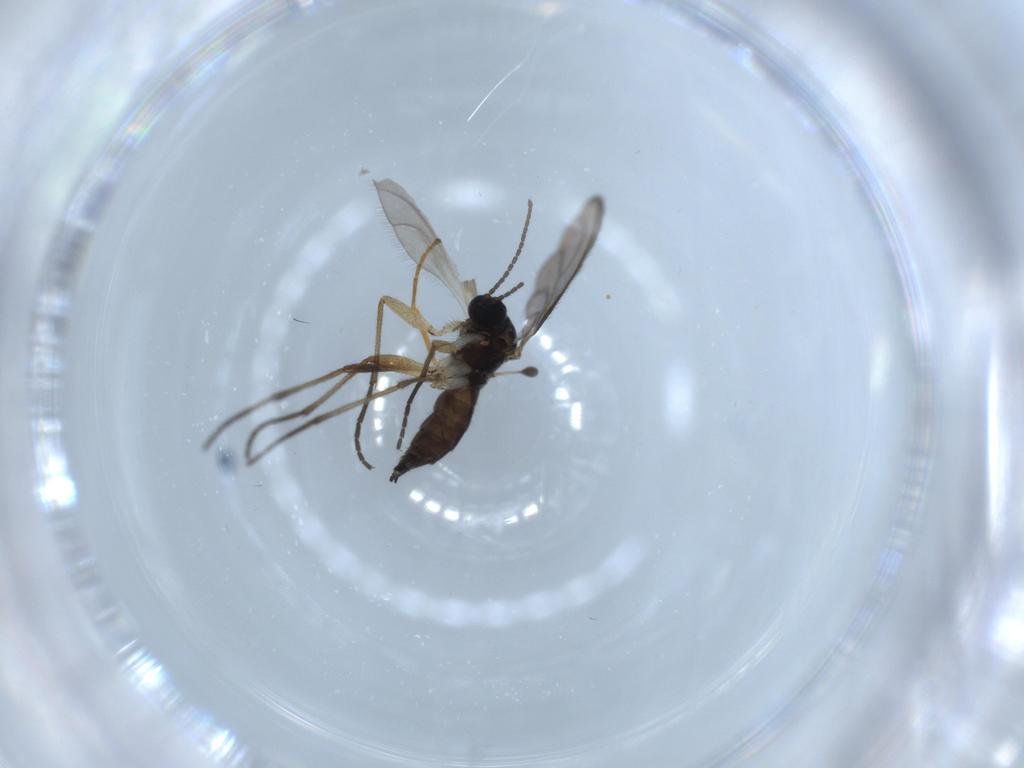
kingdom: Animalia
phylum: Arthropoda
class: Insecta
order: Diptera
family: Sciaridae
